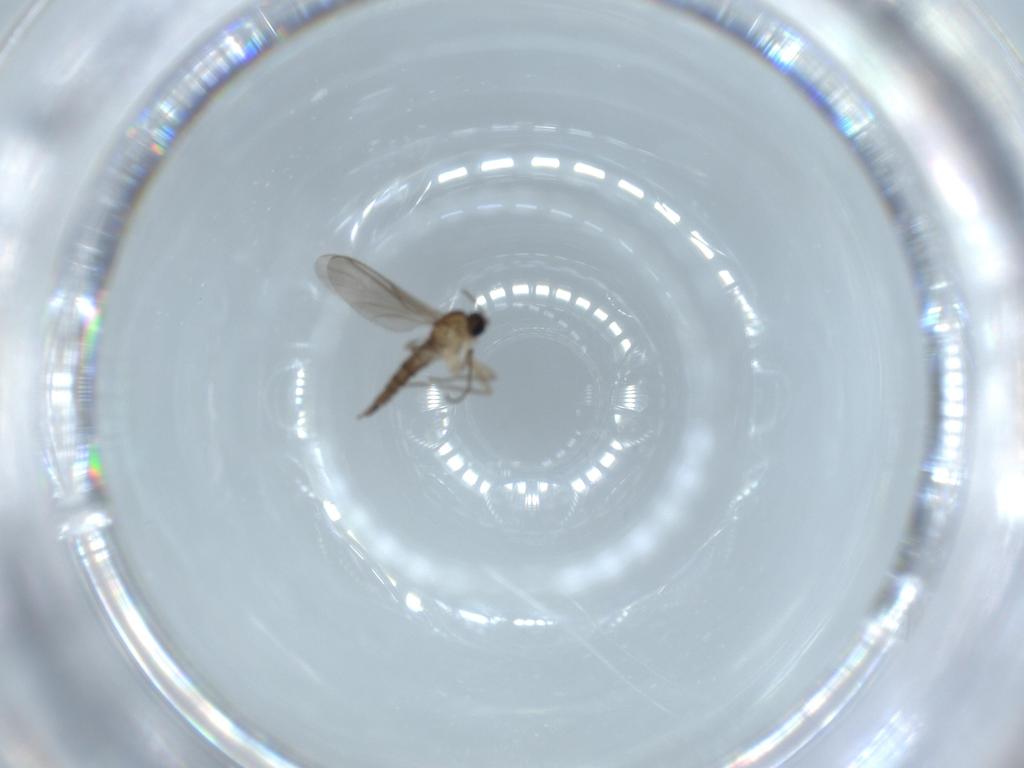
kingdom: Animalia
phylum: Arthropoda
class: Insecta
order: Diptera
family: Sciaridae
